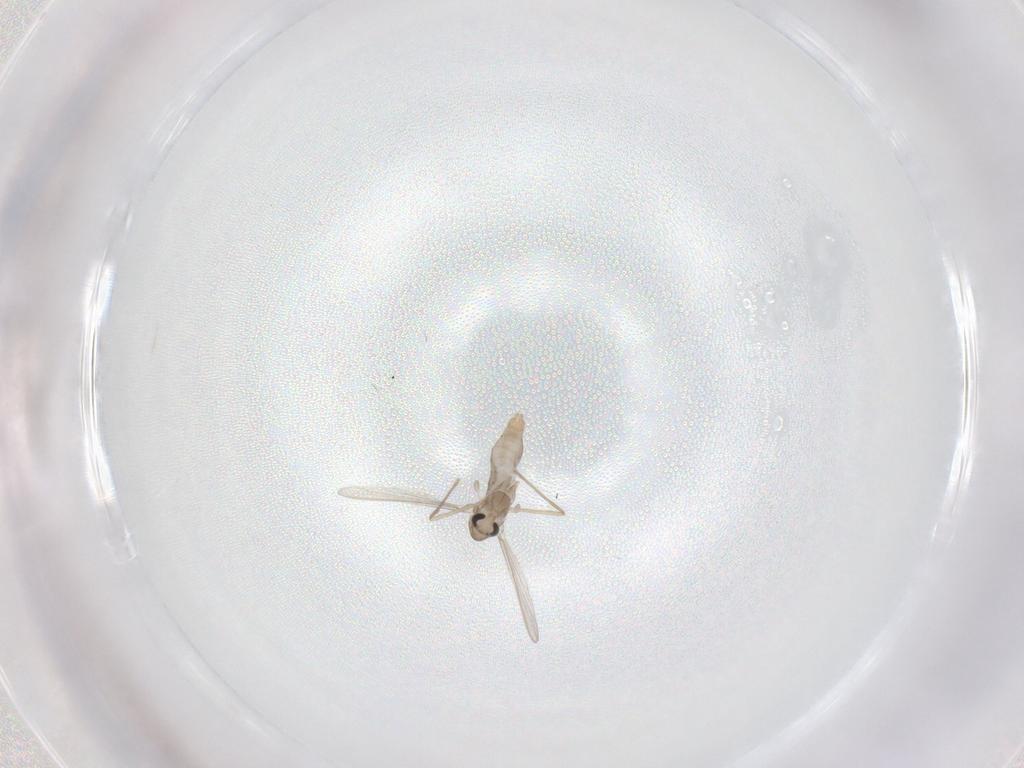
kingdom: Animalia
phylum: Arthropoda
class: Insecta
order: Diptera
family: Chironomidae
